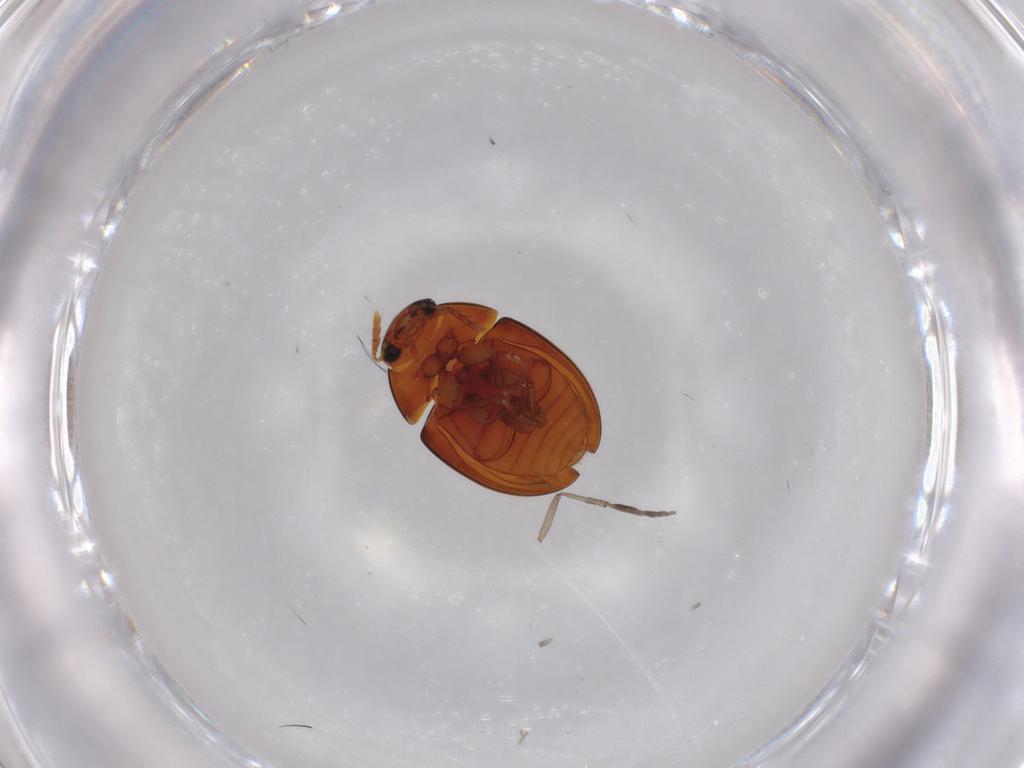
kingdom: Animalia
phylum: Arthropoda
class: Insecta
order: Coleoptera
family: Phalacridae
